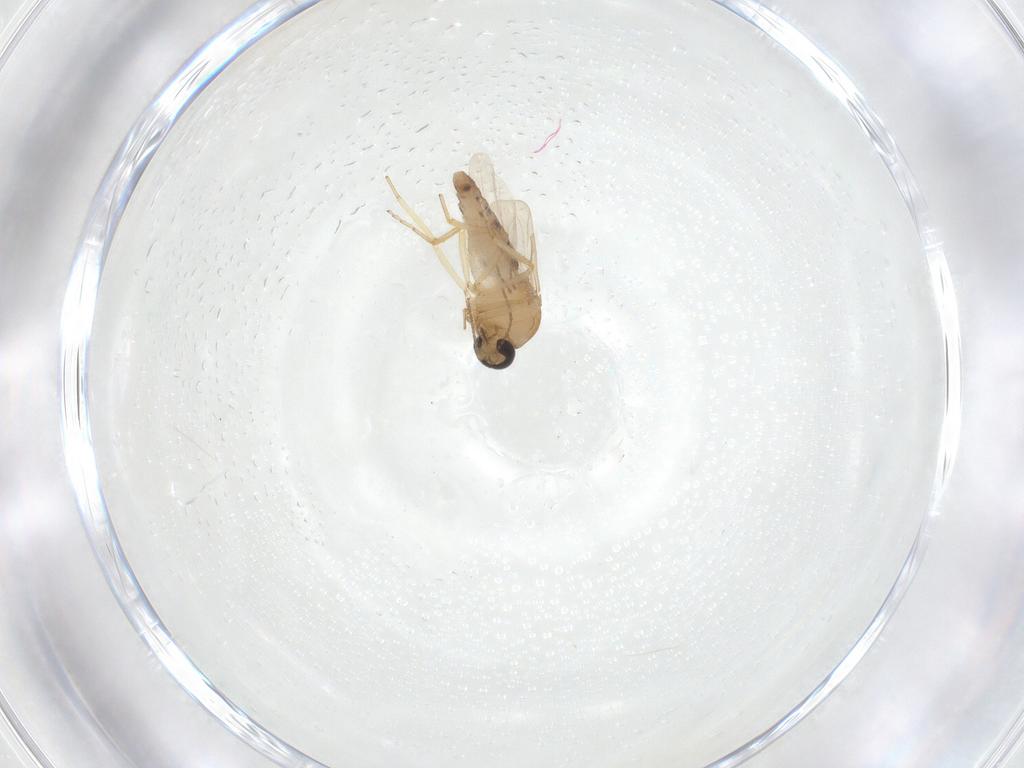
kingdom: Animalia
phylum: Arthropoda
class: Insecta
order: Diptera
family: Ceratopogonidae
